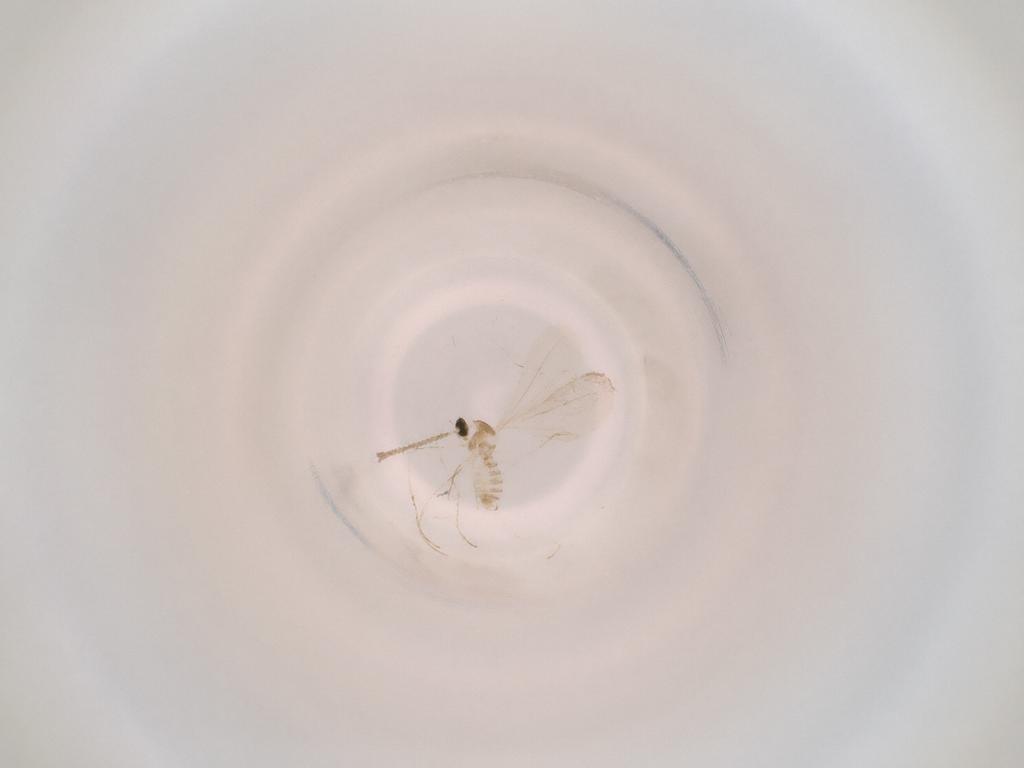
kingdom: Animalia
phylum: Arthropoda
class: Insecta
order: Diptera
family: Cecidomyiidae
